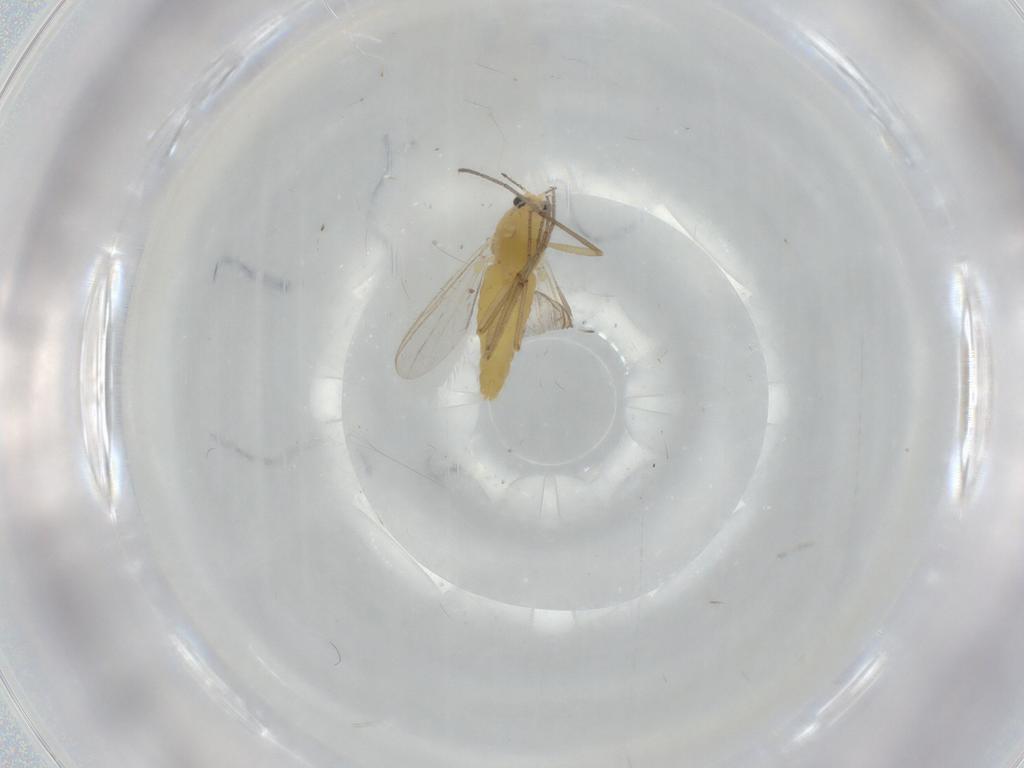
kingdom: Animalia
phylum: Arthropoda
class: Insecta
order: Diptera
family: Chironomidae
